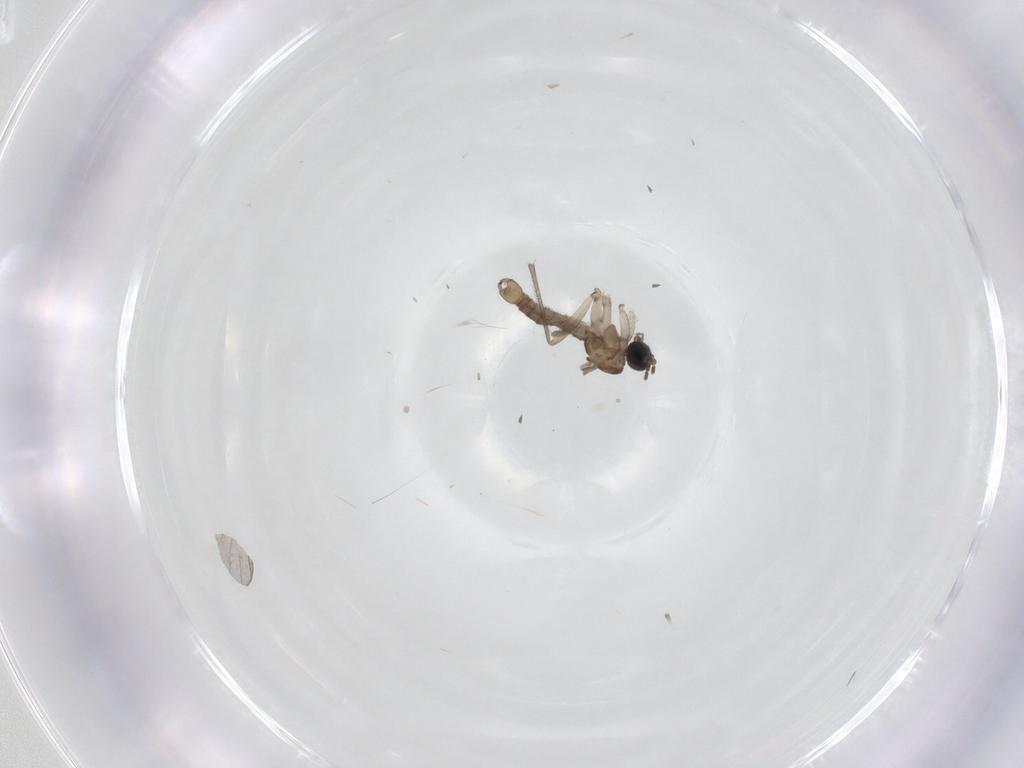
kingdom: Animalia
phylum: Arthropoda
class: Insecta
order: Diptera
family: Sciaridae
